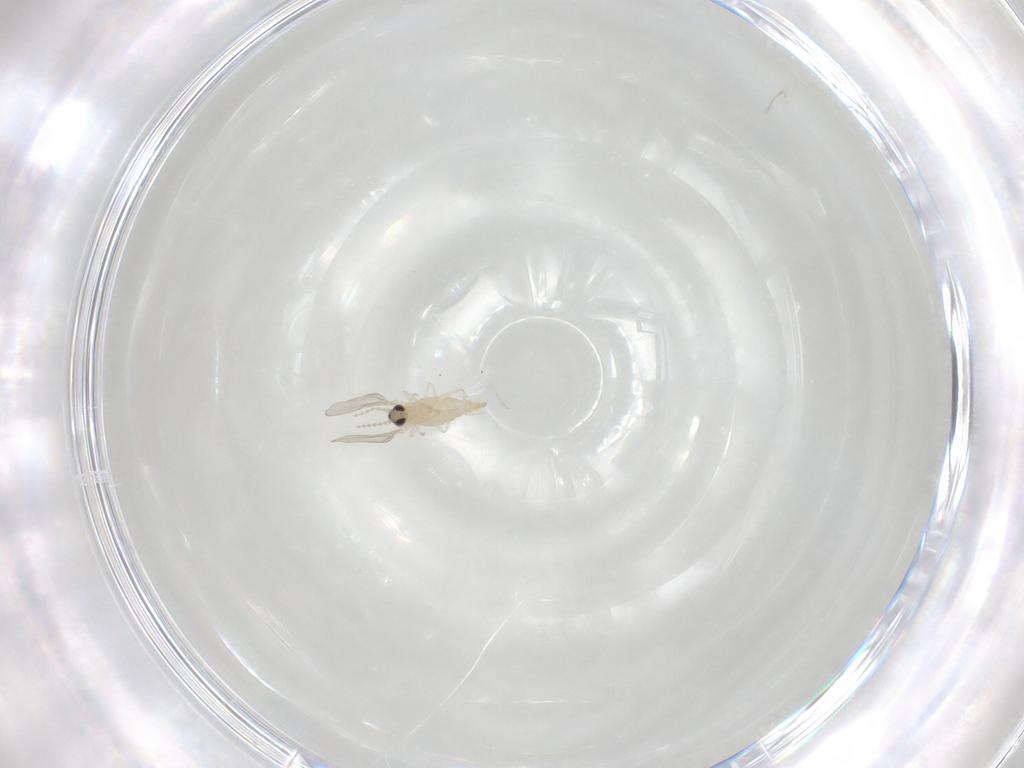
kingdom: Animalia
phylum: Arthropoda
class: Insecta
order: Diptera
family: Cecidomyiidae
